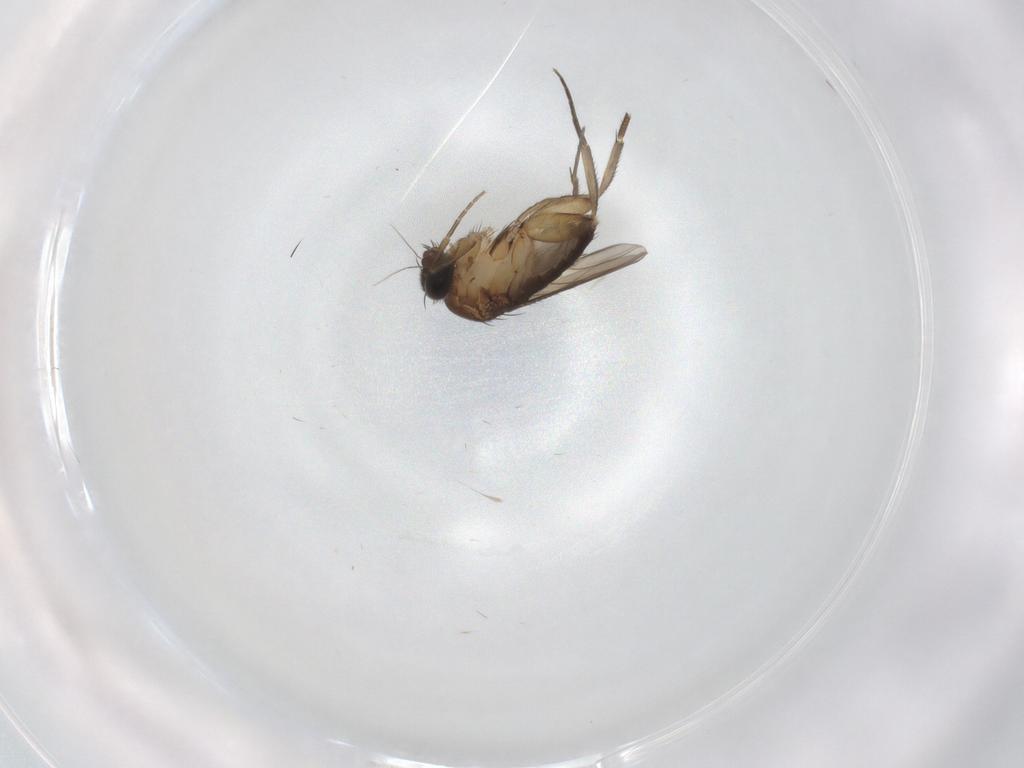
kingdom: Animalia
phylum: Arthropoda
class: Insecta
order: Diptera
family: Phoridae
